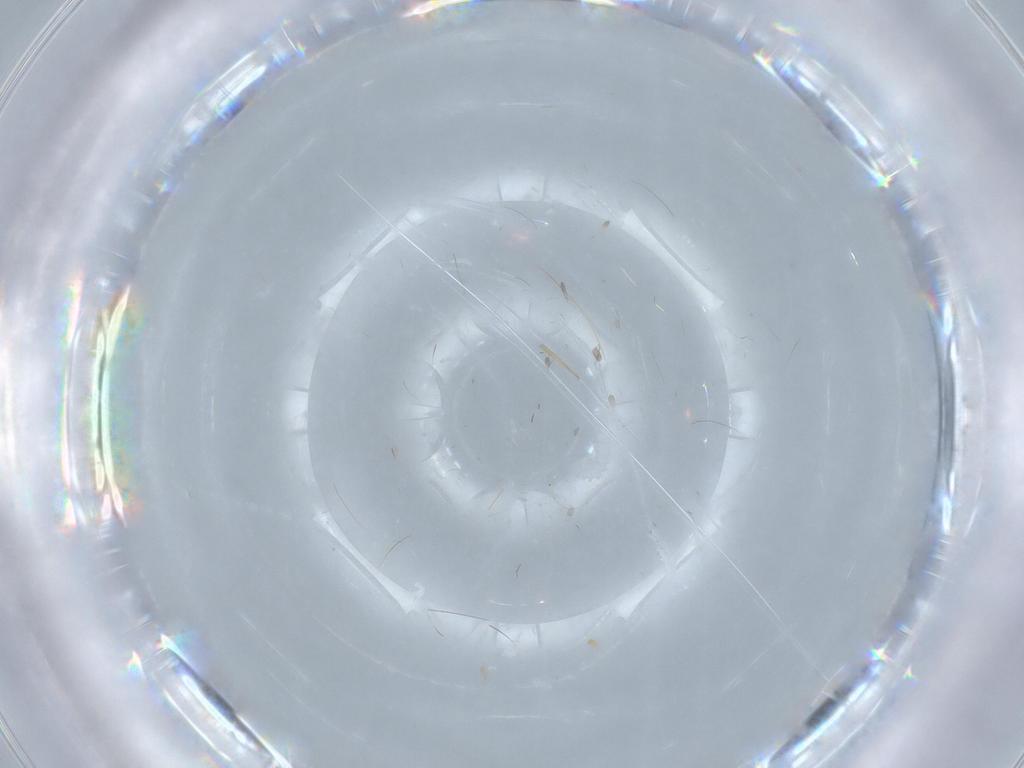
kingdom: Animalia
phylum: Arthropoda
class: Insecta
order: Diptera
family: Cecidomyiidae
